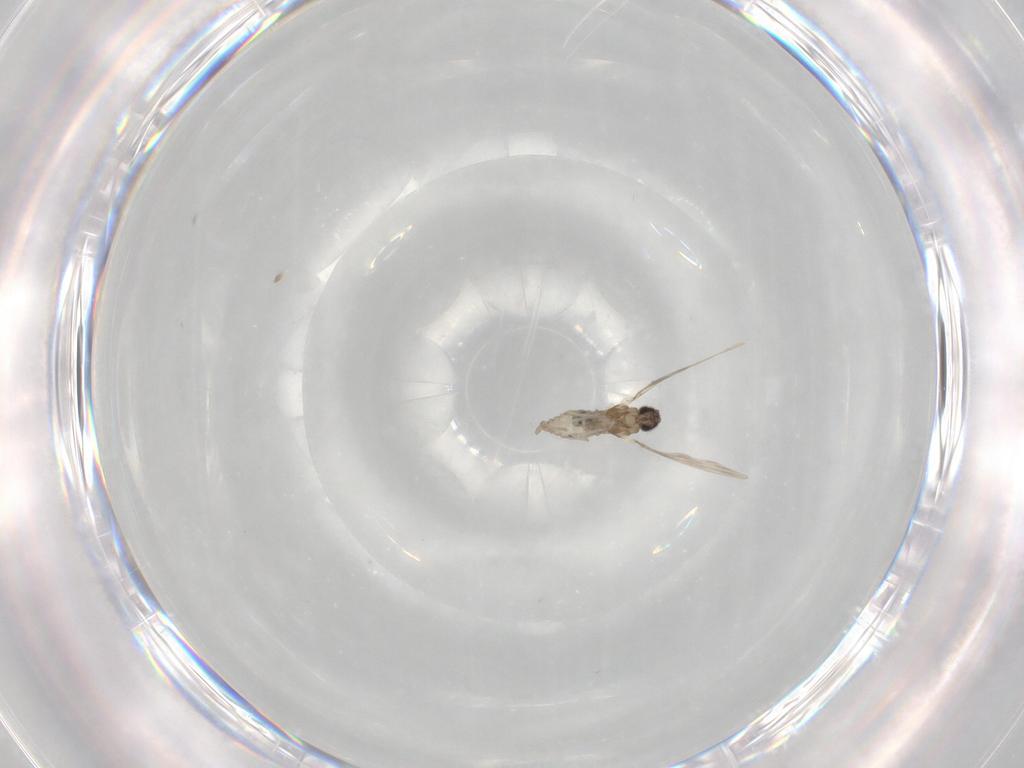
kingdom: Animalia
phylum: Arthropoda
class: Insecta
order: Diptera
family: Cecidomyiidae
